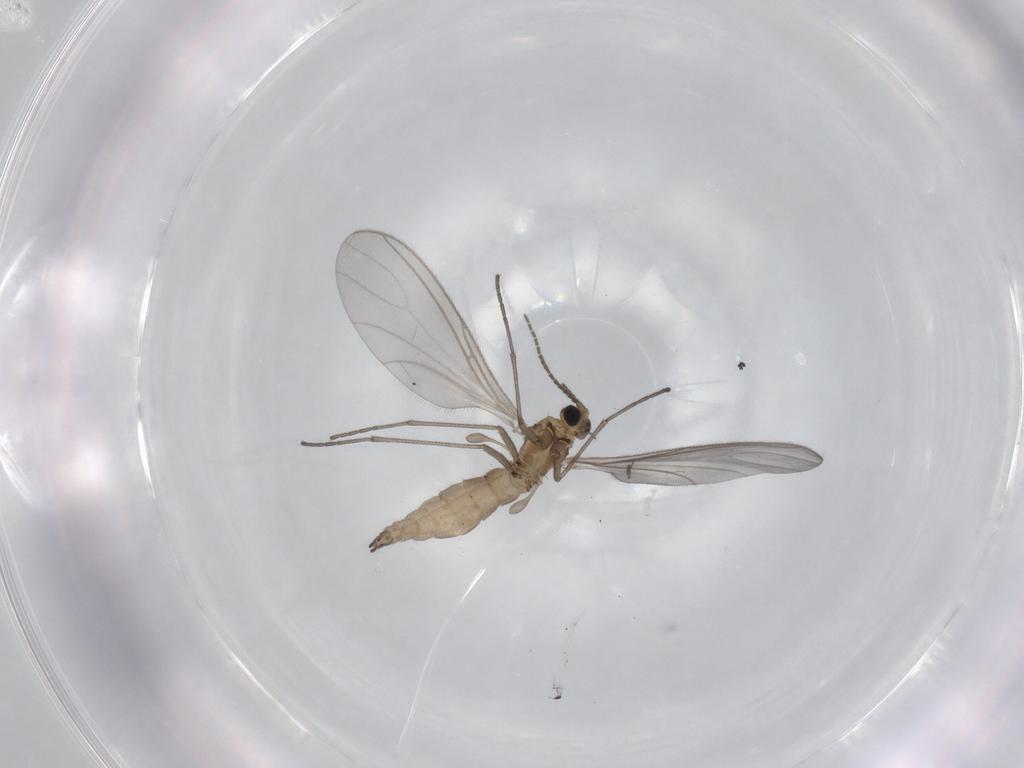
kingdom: Animalia
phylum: Arthropoda
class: Insecta
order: Diptera
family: Sciaridae
